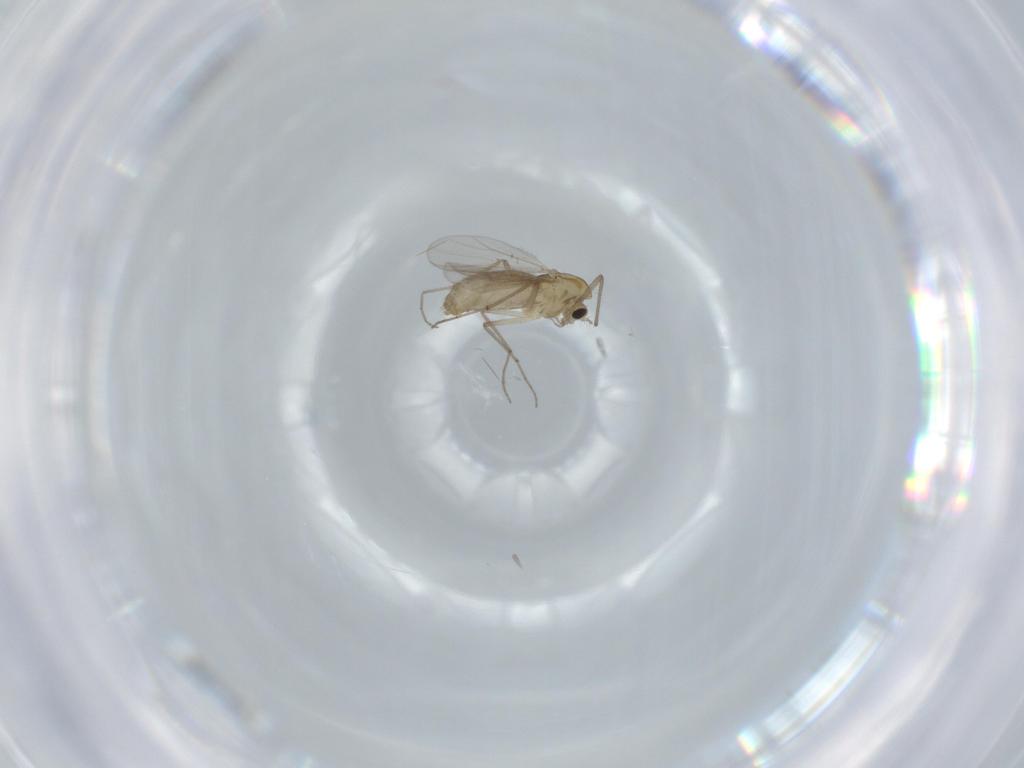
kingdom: Animalia
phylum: Arthropoda
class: Insecta
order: Diptera
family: Chironomidae
